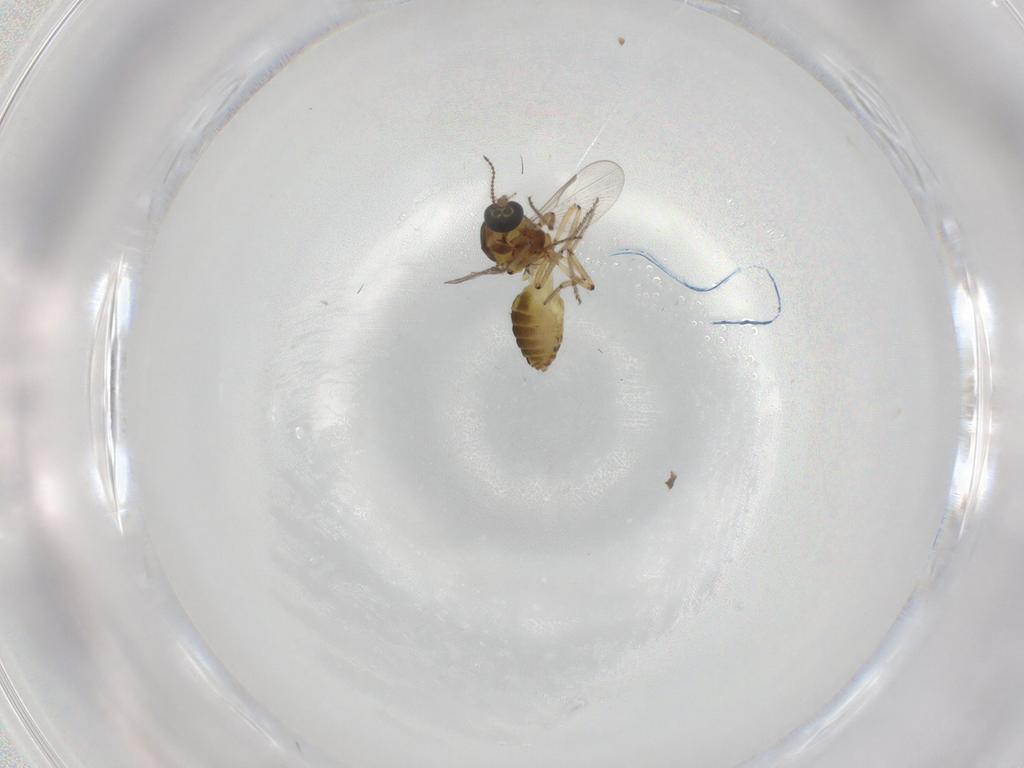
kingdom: Animalia
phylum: Arthropoda
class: Insecta
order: Diptera
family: Ceratopogonidae
